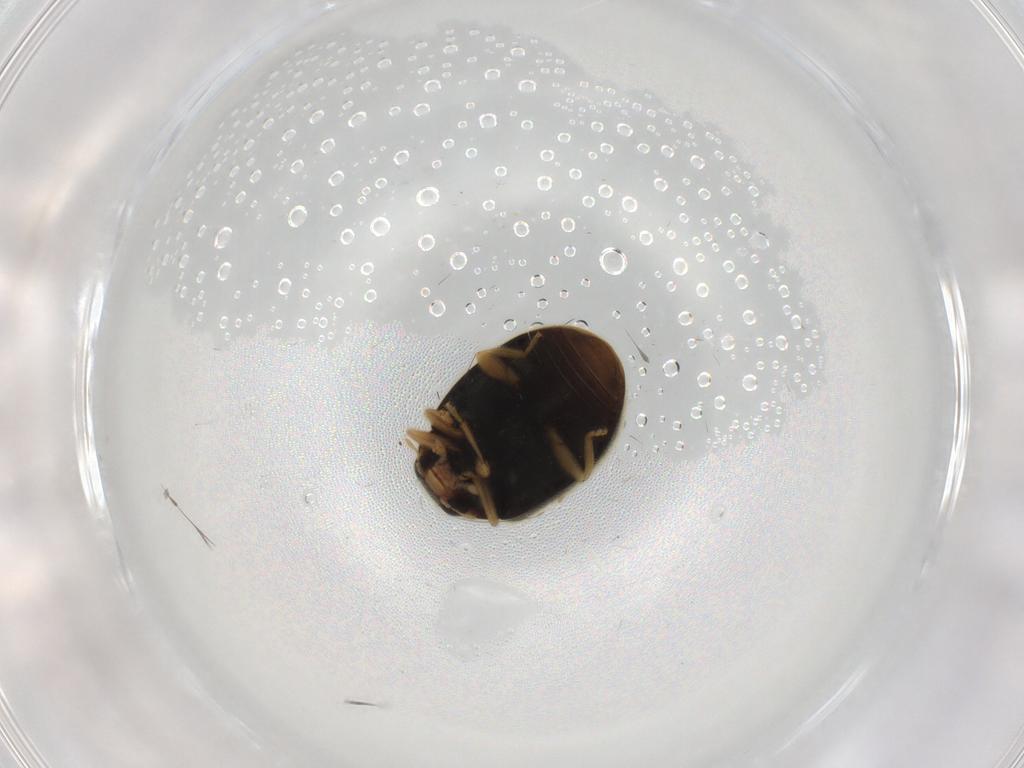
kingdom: Animalia
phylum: Arthropoda
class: Insecta
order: Coleoptera
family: Coccinellidae
